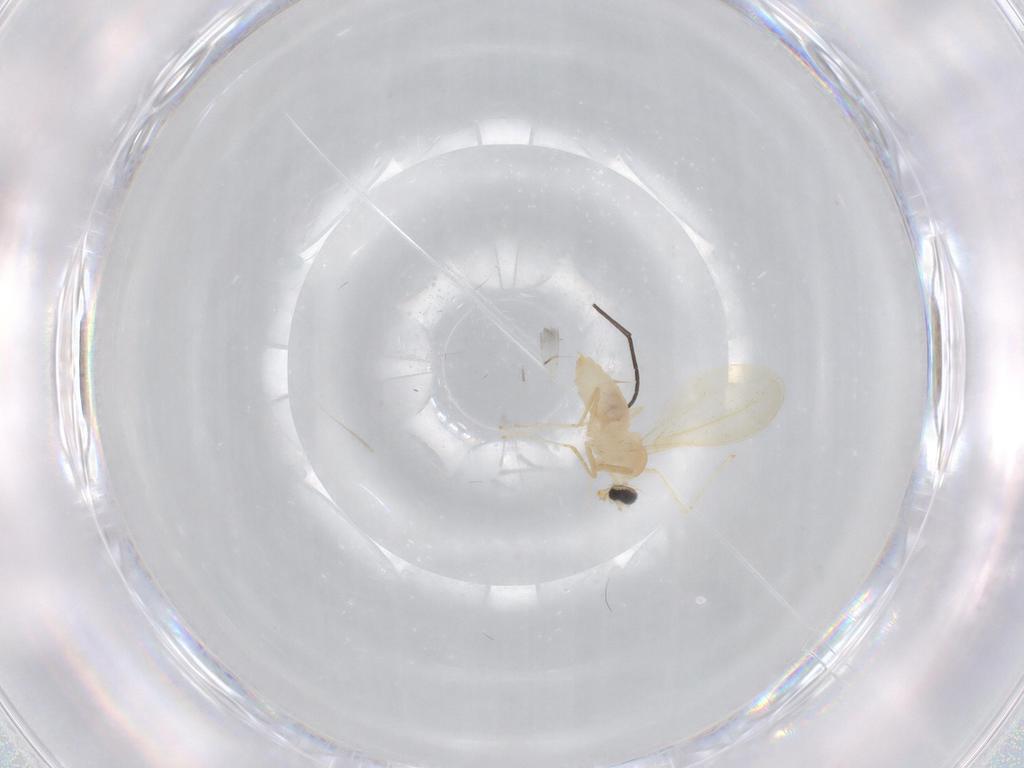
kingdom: Animalia
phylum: Arthropoda
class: Insecta
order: Diptera
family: Cecidomyiidae
